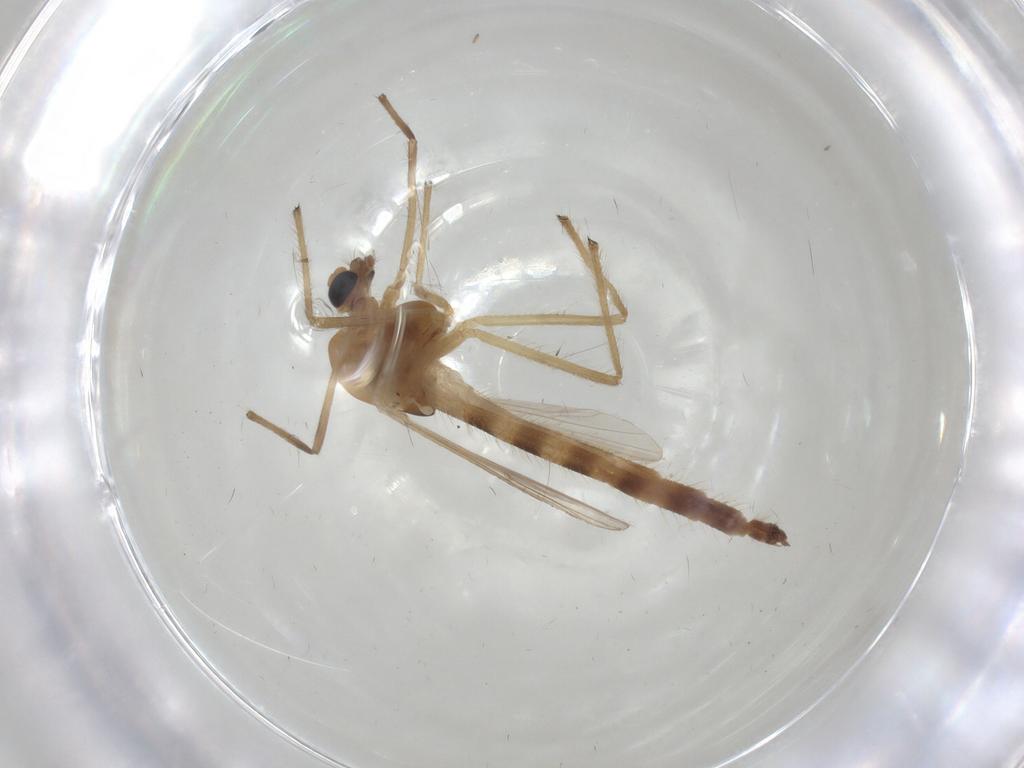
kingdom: Animalia
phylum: Arthropoda
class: Insecta
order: Diptera
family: Chironomidae
